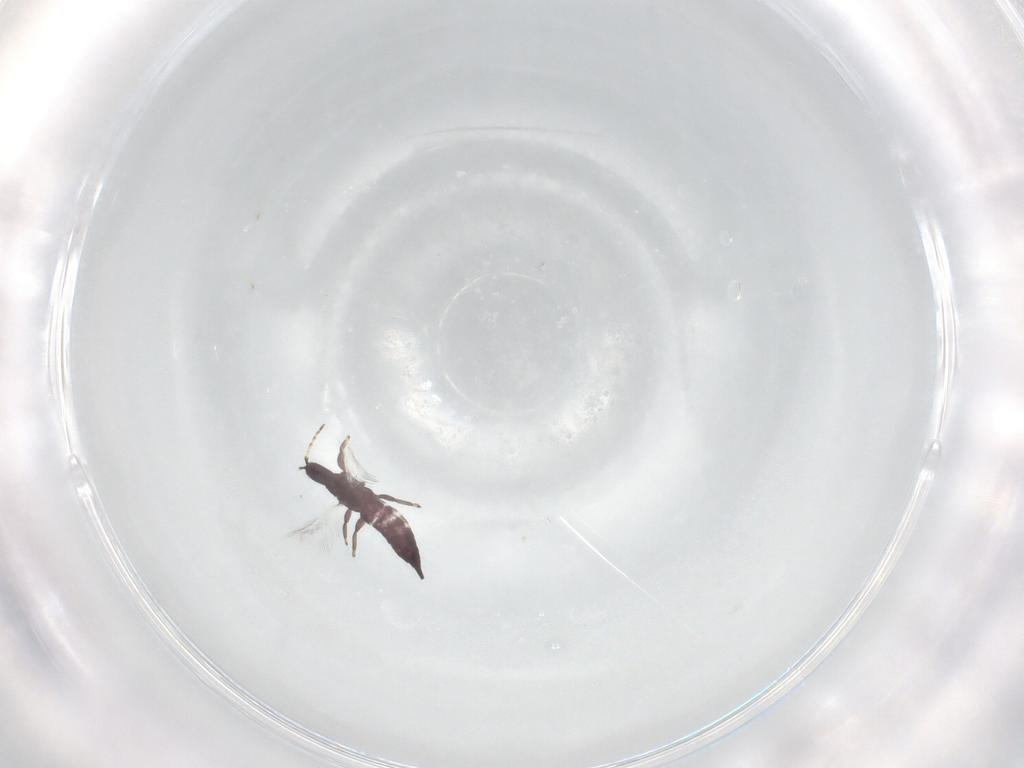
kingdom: Animalia
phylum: Arthropoda
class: Insecta
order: Thysanoptera
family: Phlaeothripidae
